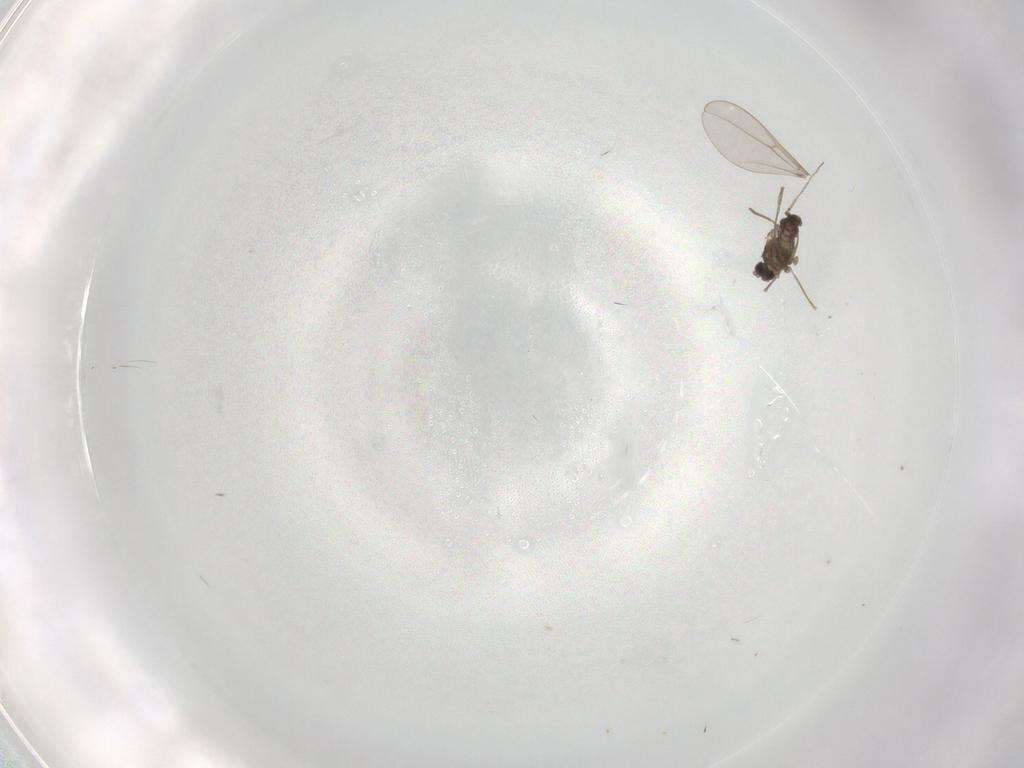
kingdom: Animalia
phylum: Arthropoda
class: Insecta
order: Diptera
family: Cecidomyiidae
